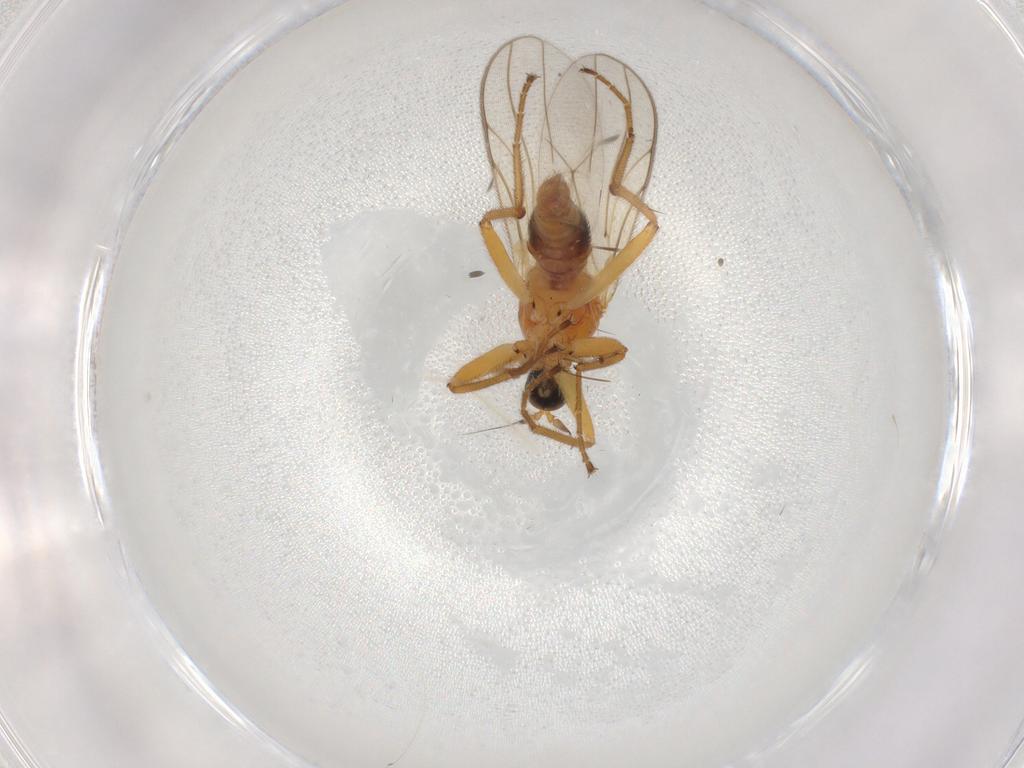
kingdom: Animalia
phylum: Arthropoda
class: Insecta
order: Diptera
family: Hybotidae
